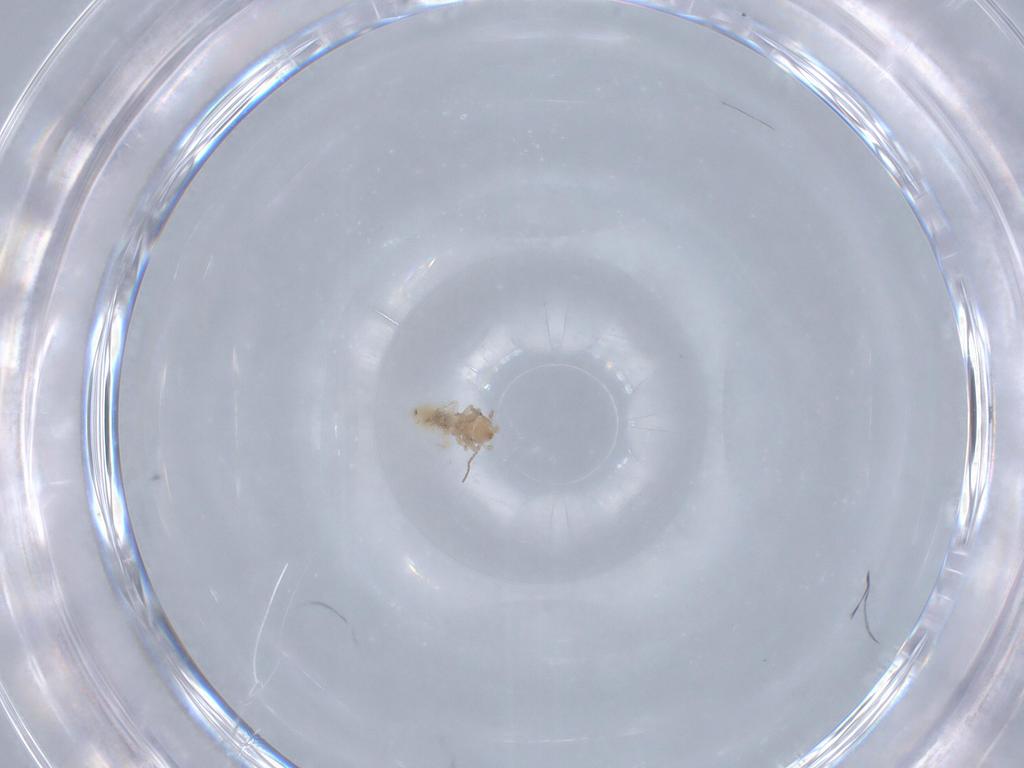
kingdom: Animalia
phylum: Arthropoda
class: Insecta
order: Psocodea
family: Lepidopsocidae
